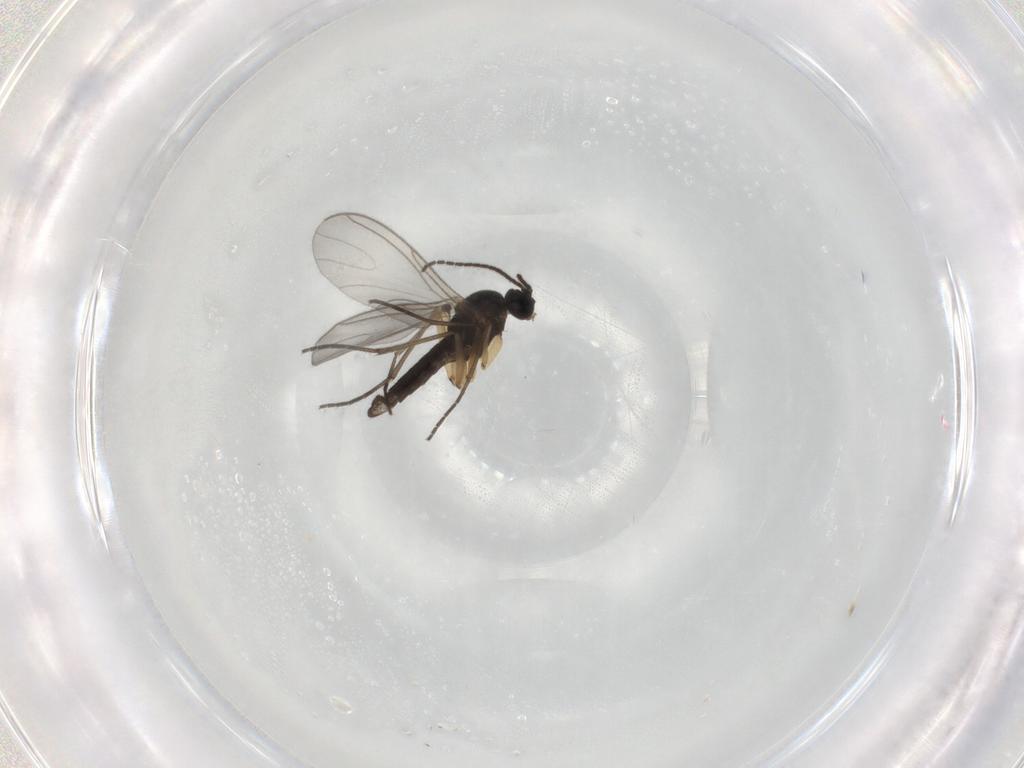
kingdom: Animalia
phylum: Arthropoda
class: Insecta
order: Diptera
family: Sciaridae
